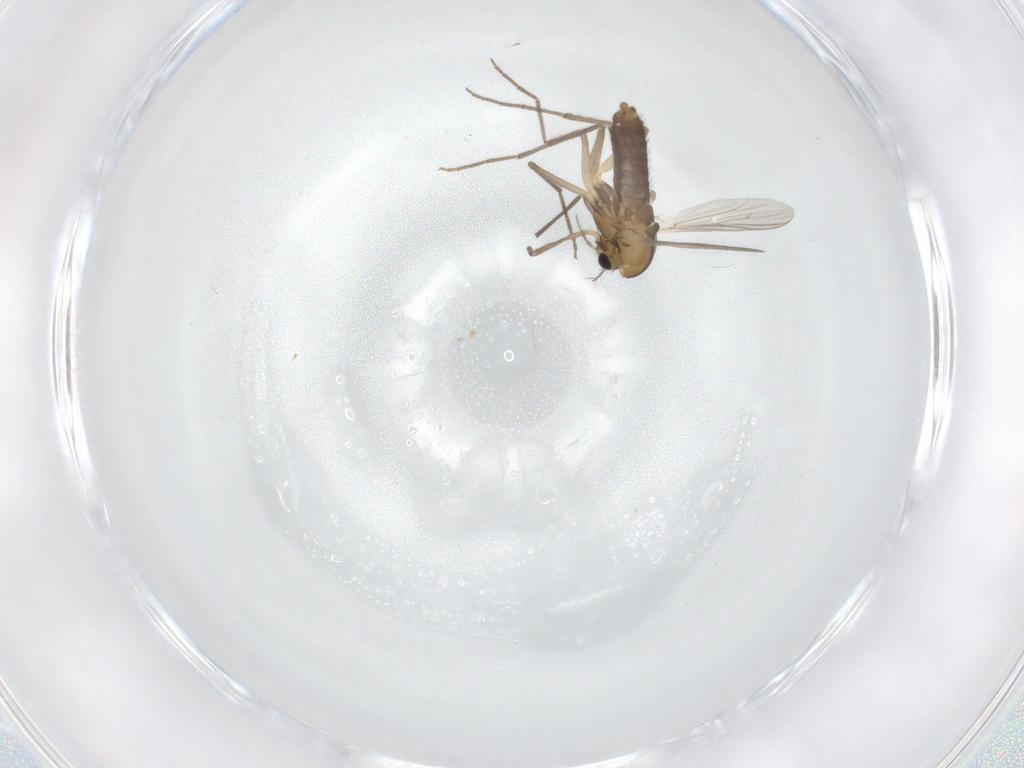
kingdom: Animalia
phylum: Arthropoda
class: Insecta
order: Diptera
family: Chironomidae
